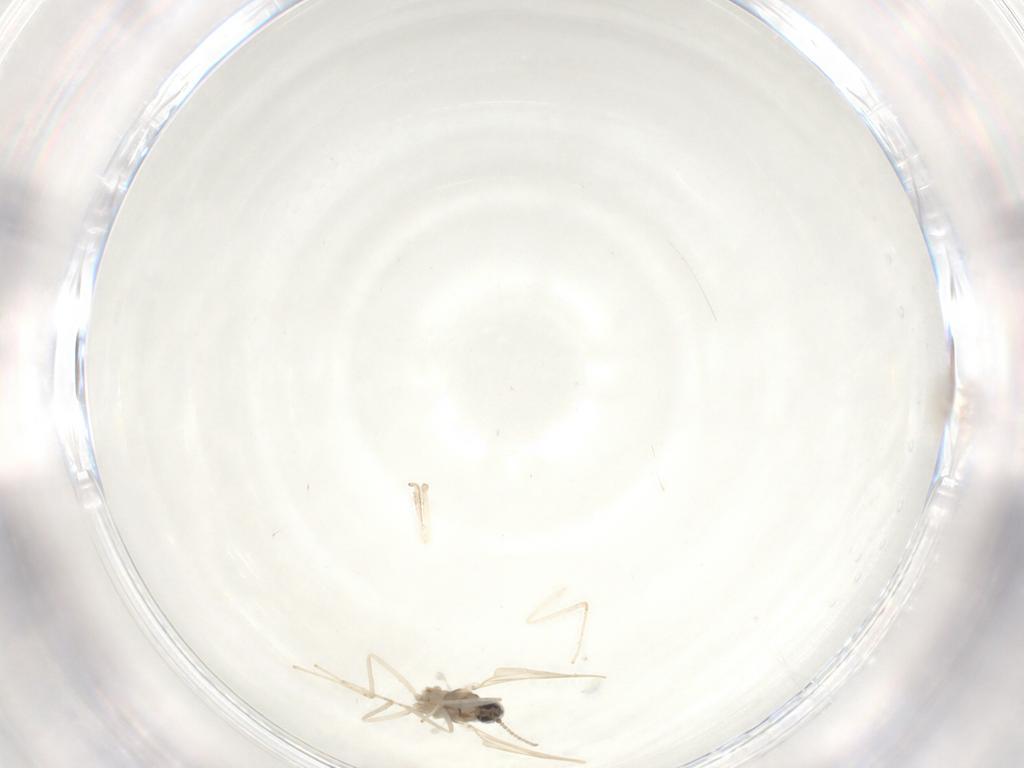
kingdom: Animalia
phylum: Arthropoda
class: Insecta
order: Diptera
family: Cecidomyiidae
